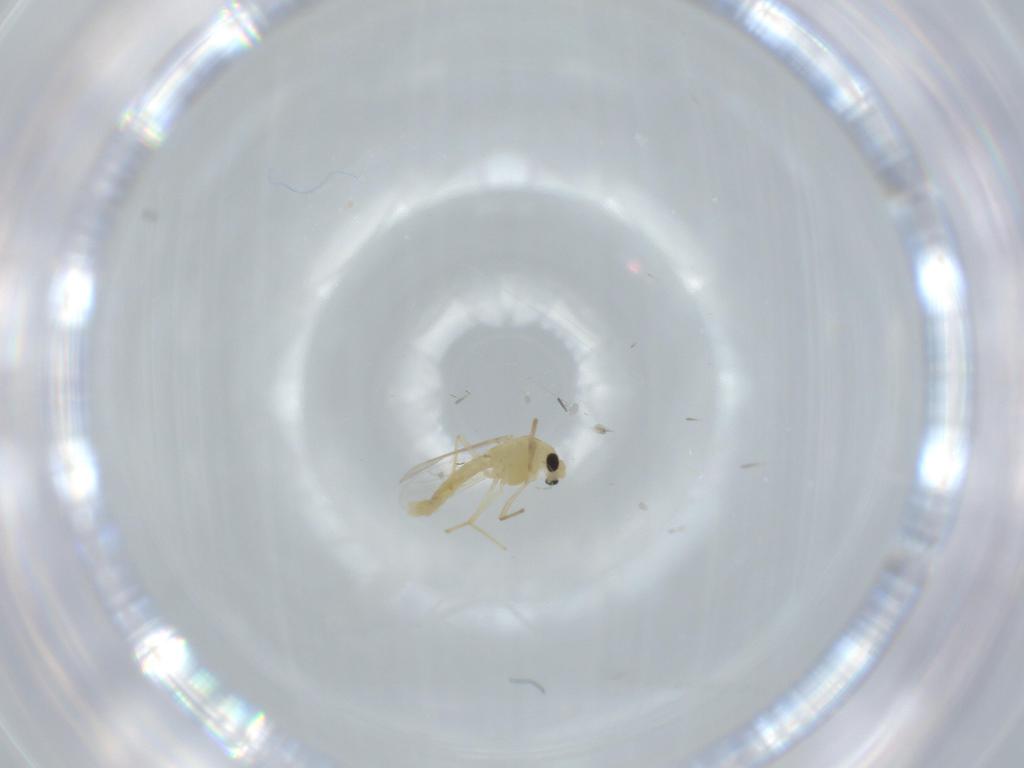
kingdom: Animalia
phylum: Arthropoda
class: Insecta
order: Diptera
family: Chironomidae
